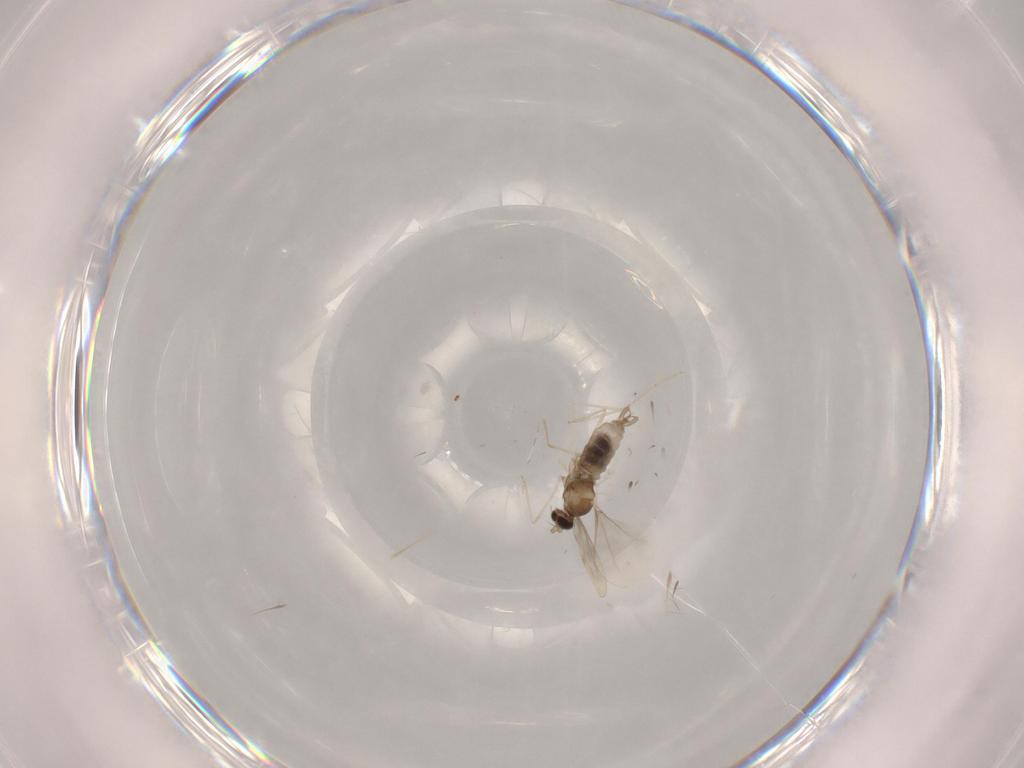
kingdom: Animalia
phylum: Arthropoda
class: Insecta
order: Diptera
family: Cecidomyiidae
